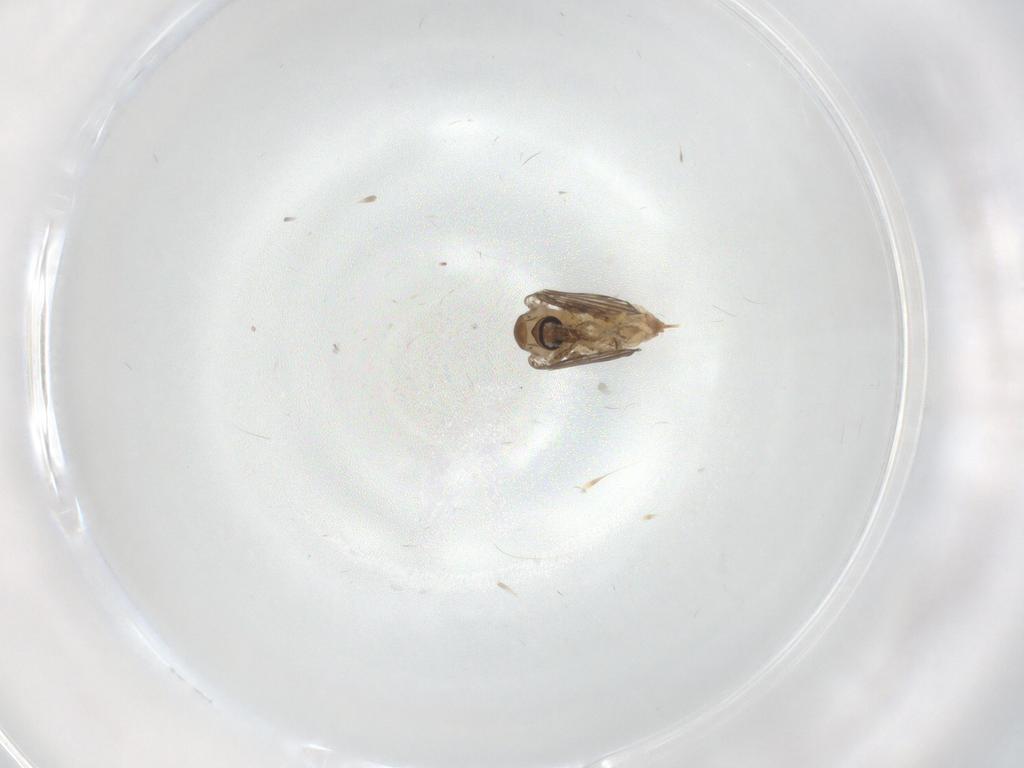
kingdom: Animalia
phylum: Arthropoda
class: Insecta
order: Diptera
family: Psychodidae
